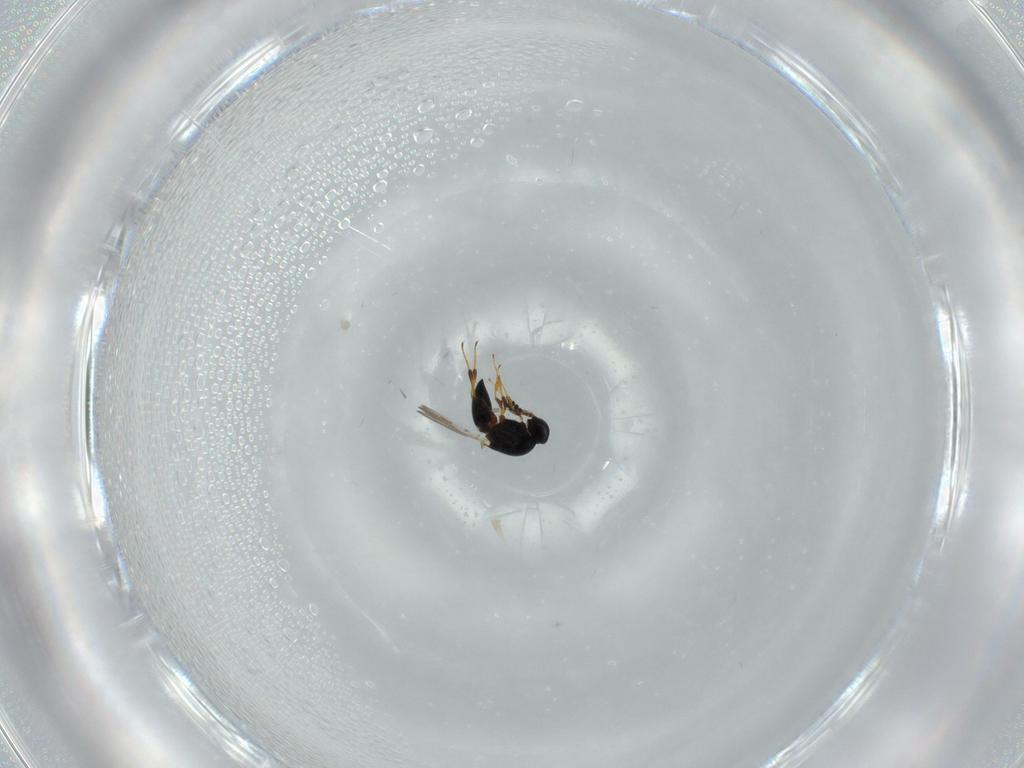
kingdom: Animalia
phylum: Arthropoda
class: Insecta
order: Hymenoptera
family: Platygastridae
